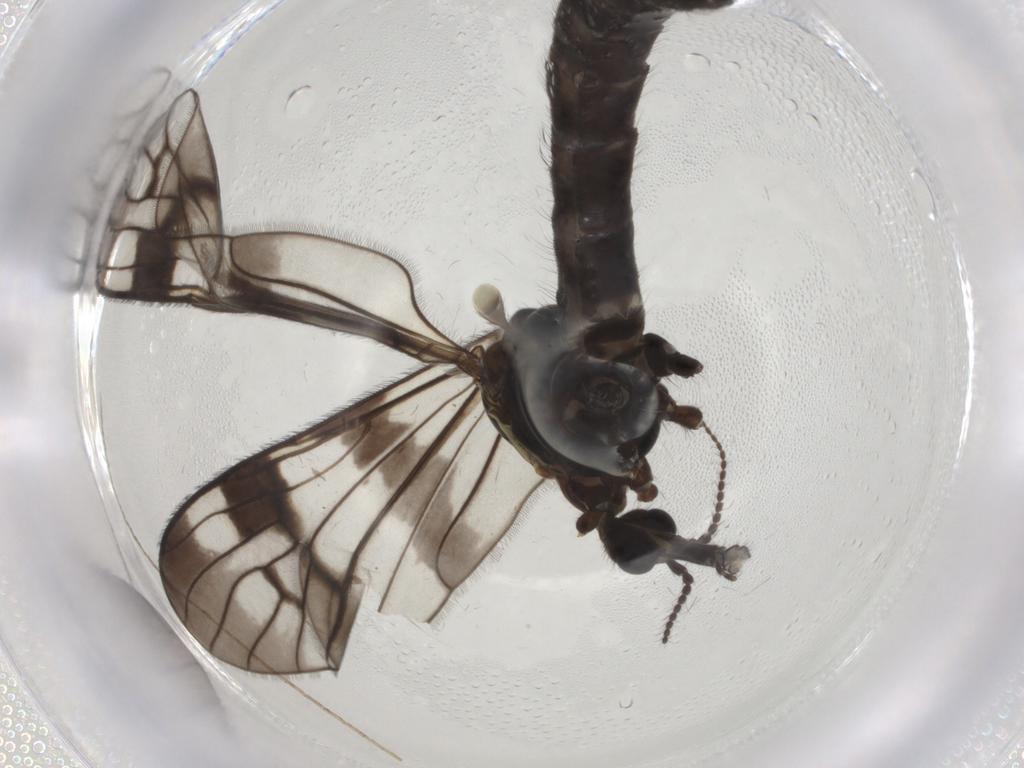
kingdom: Animalia
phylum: Arthropoda
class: Insecta
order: Diptera
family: Limoniidae
